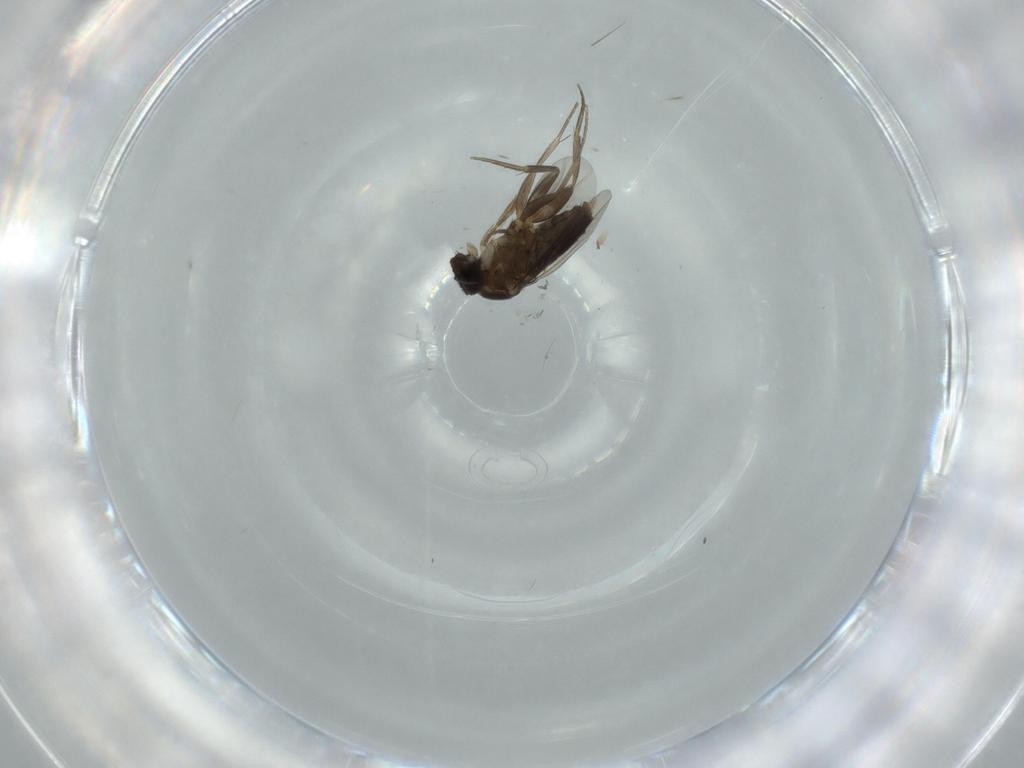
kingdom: Animalia
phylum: Arthropoda
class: Insecta
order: Diptera
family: Phoridae
